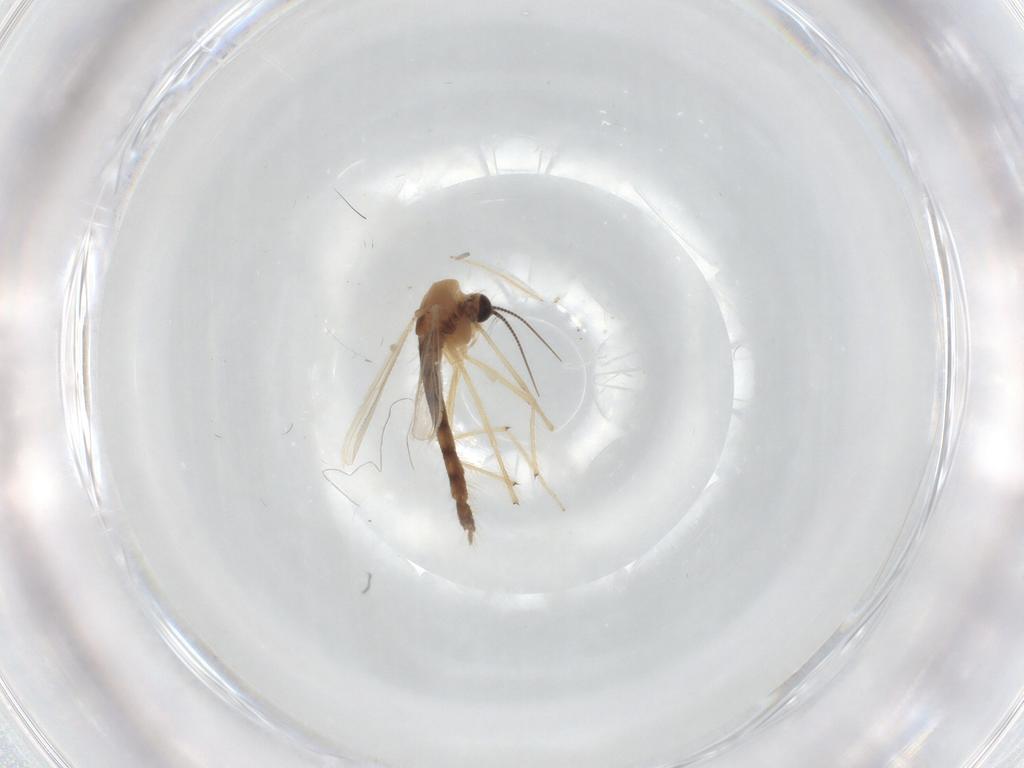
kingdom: Animalia
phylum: Arthropoda
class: Insecta
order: Diptera
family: Chironomidae
